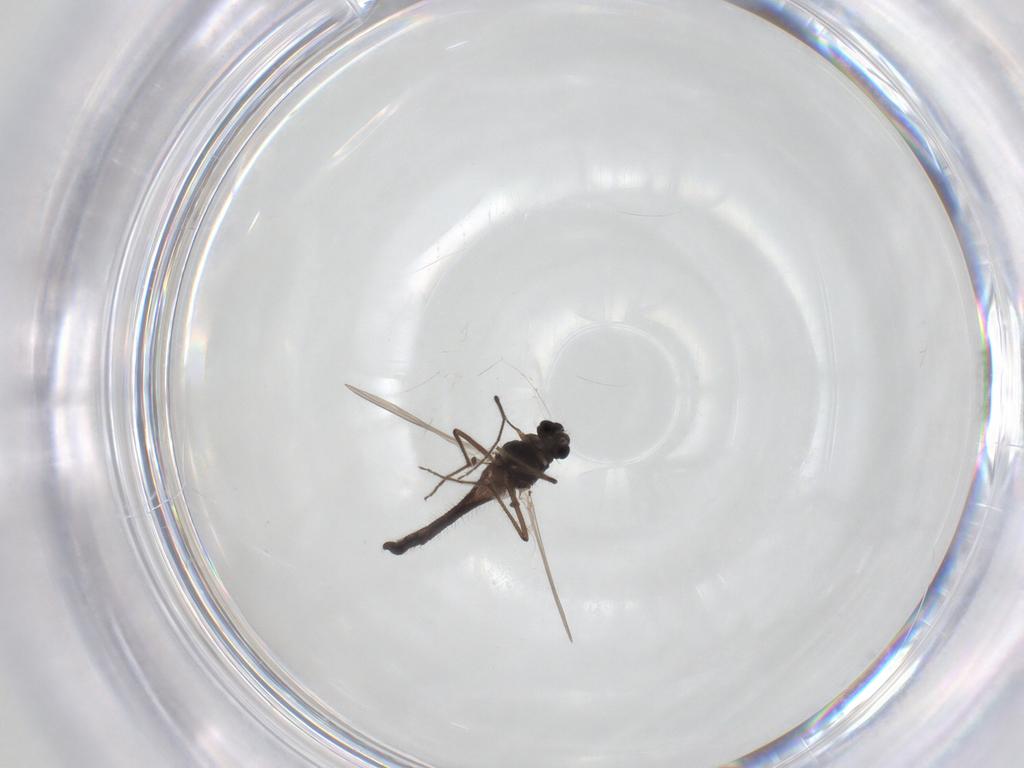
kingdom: Animalia
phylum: Arthropoda
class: Insecta
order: Diptera
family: Chironomidae
